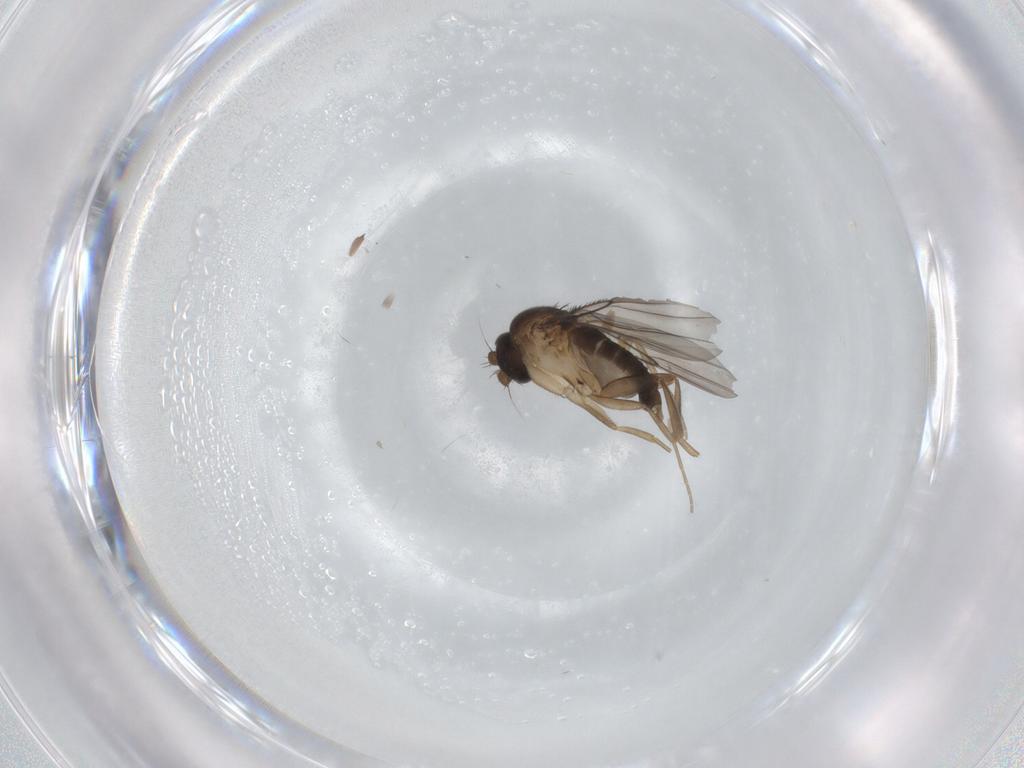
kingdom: Animalia
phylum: Arthropoda
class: Insecta
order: Diptera
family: Phoridae
